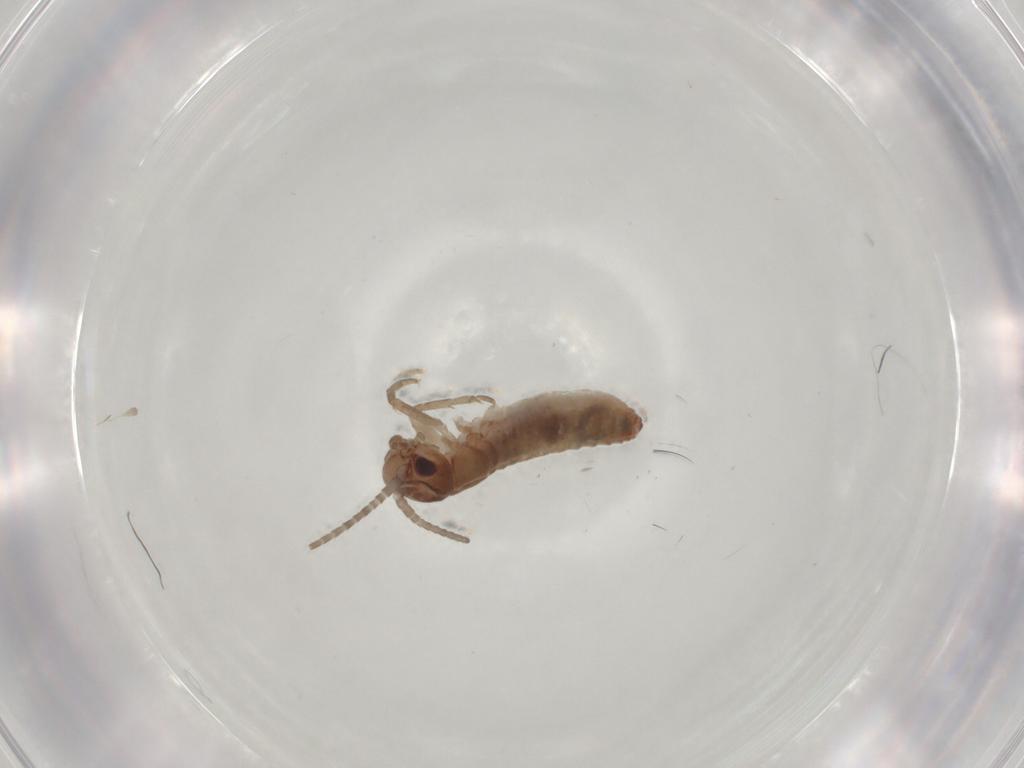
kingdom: Animalia
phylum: Arthropoda
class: Insecta
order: Orthoptera
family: Mogoplistidae
